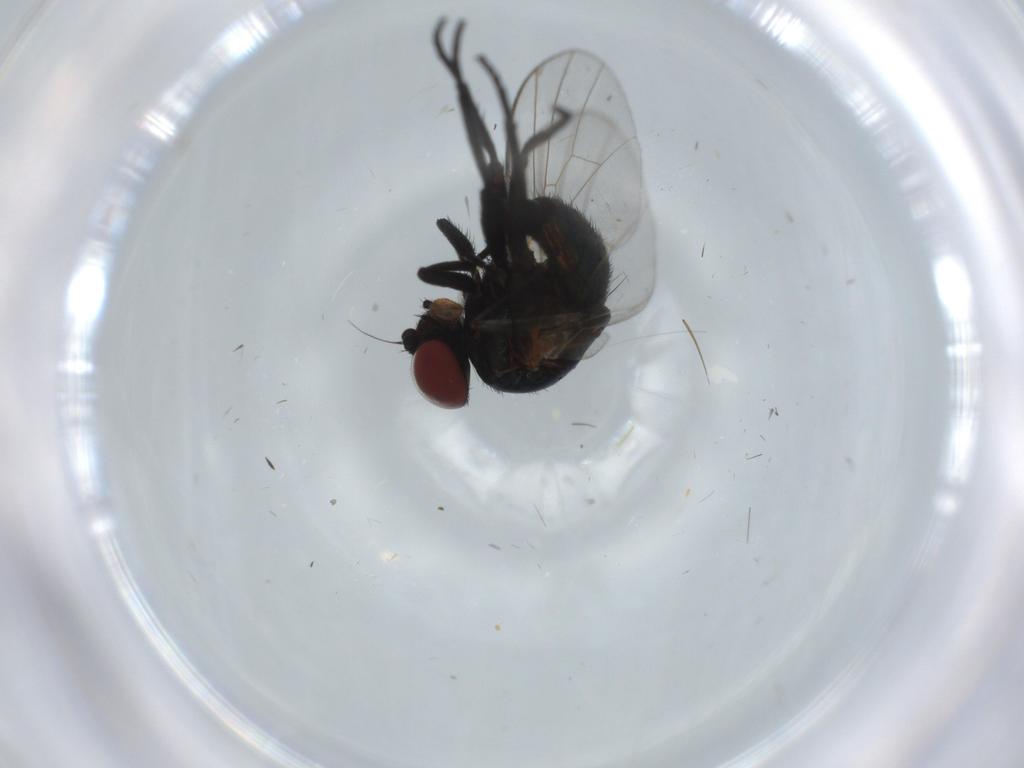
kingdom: Animalia
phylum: Arthropoda
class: Insecta
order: Diptera
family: Agromyzidae
